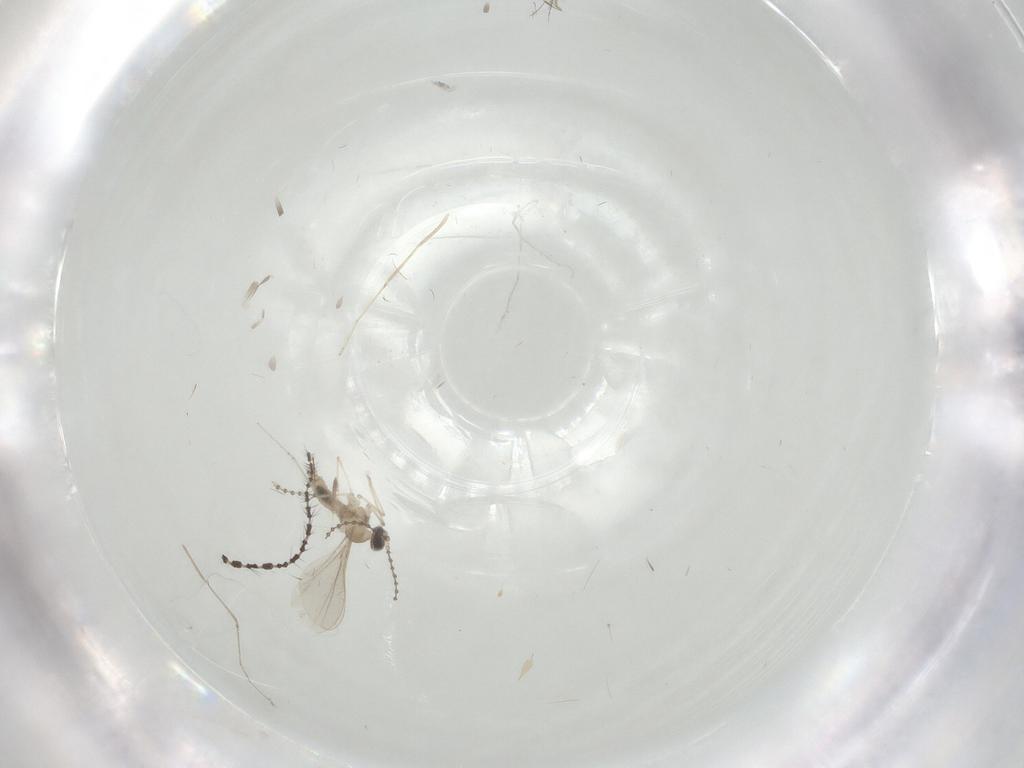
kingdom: Animalia
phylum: Arthropoda
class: Insecta
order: Diptera
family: Cecidomyiidae
